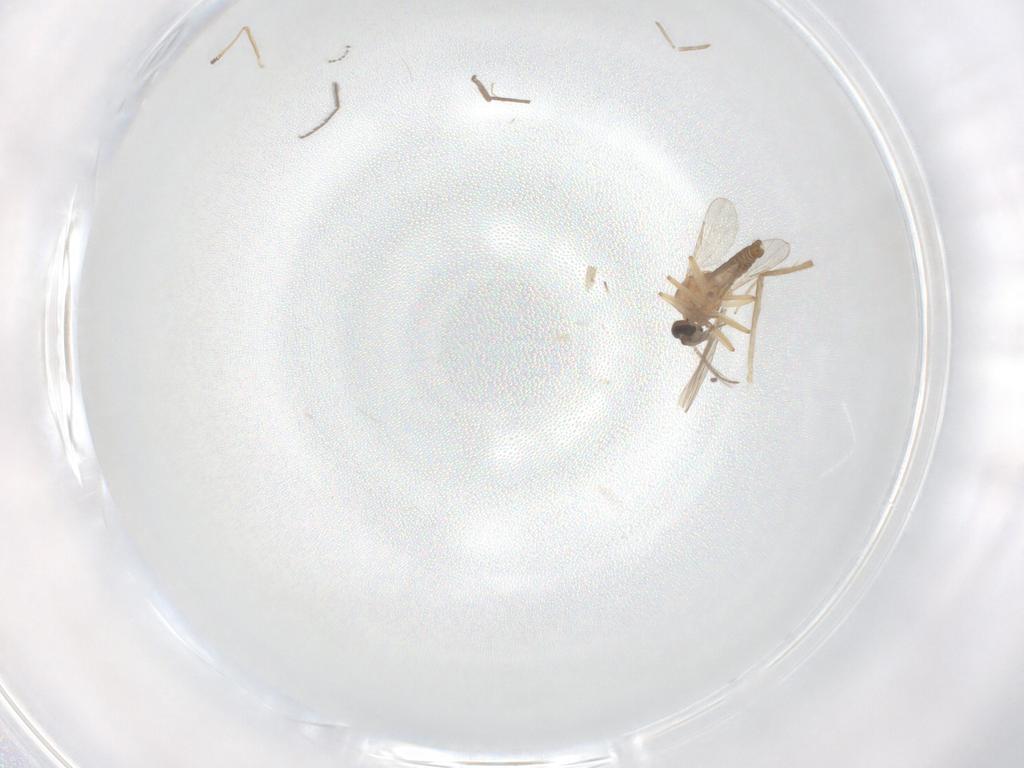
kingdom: Animalia
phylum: Arthropoda
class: Insecta
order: Diptera
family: Chironomidae
